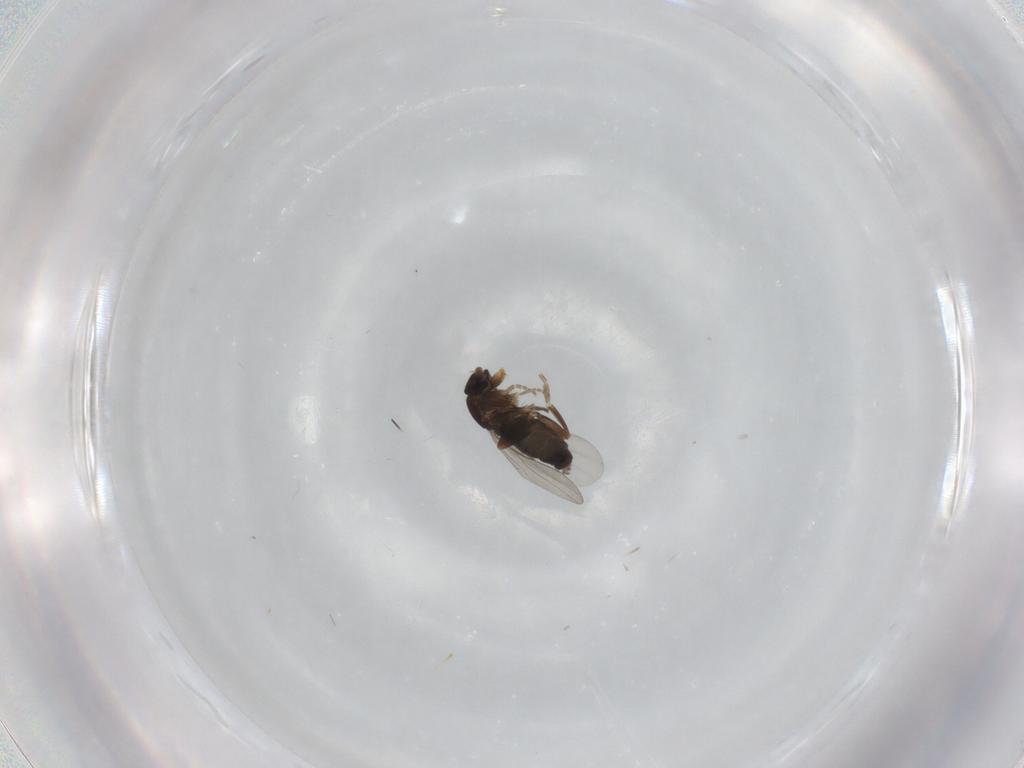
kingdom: Animalia
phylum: Arthropoda
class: Insecta
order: Diptera
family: Phoridae
